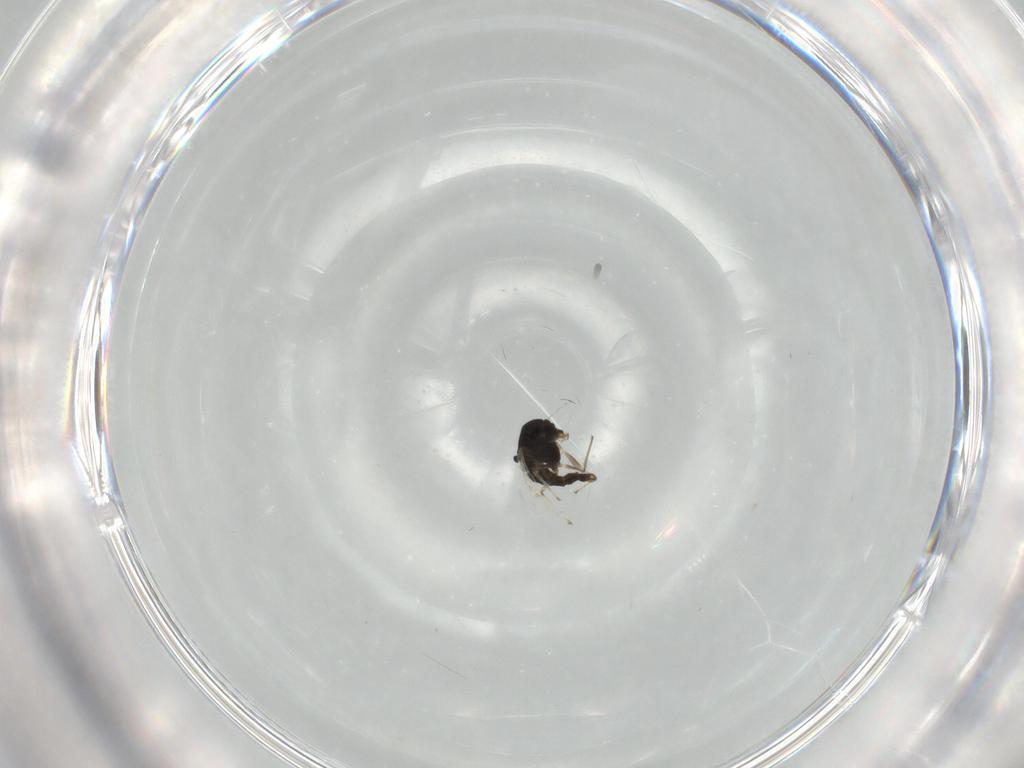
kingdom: Animalia
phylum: Arthropoda
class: Insecta
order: Diptera
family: Chironomidae
